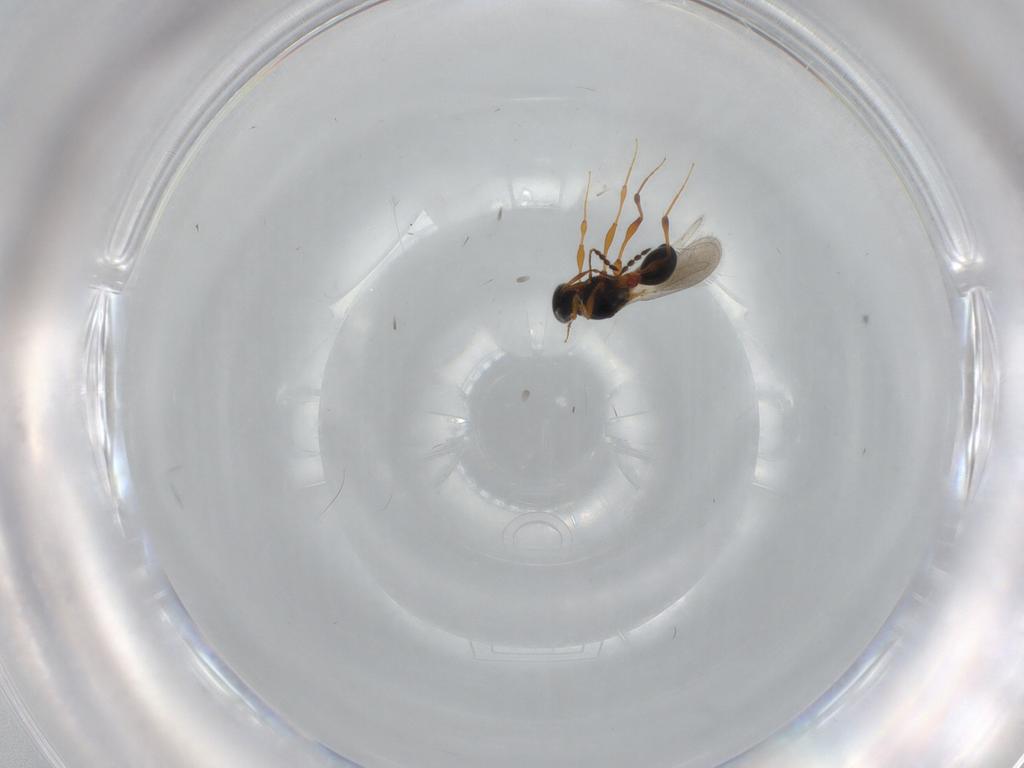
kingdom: Animalia
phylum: Arthropoda
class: Insecta
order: Hymenoptera
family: Platygastridae
